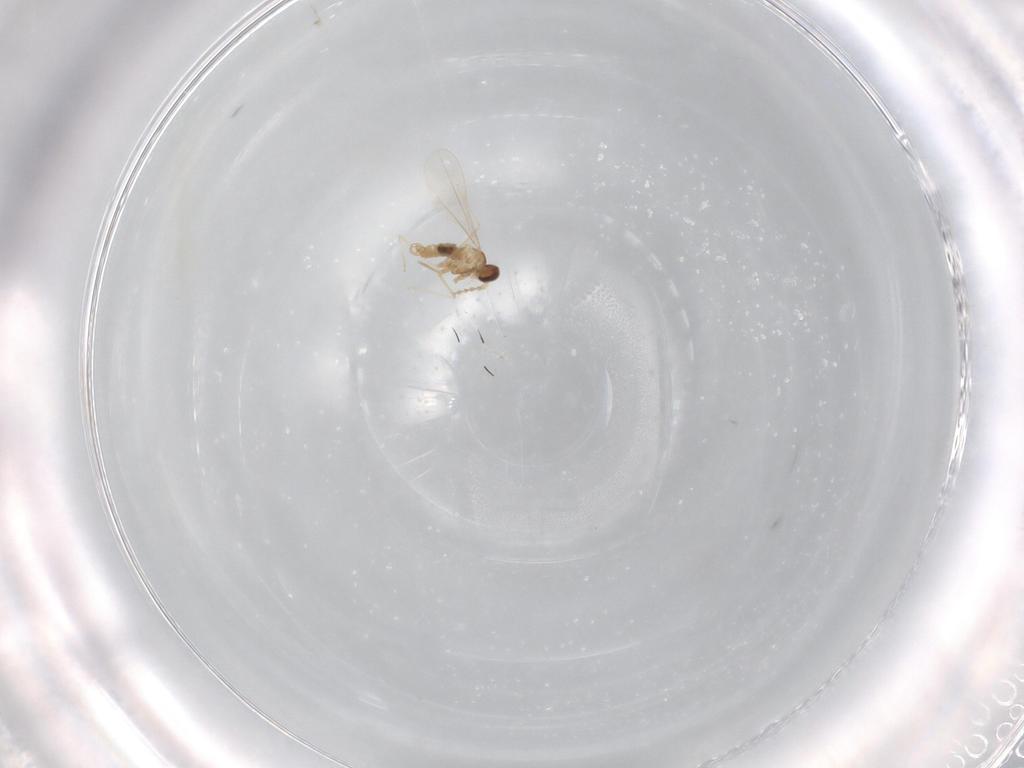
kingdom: Animalia
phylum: Arthropoda
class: Insecta
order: Diptera
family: Cecidomyiidae
